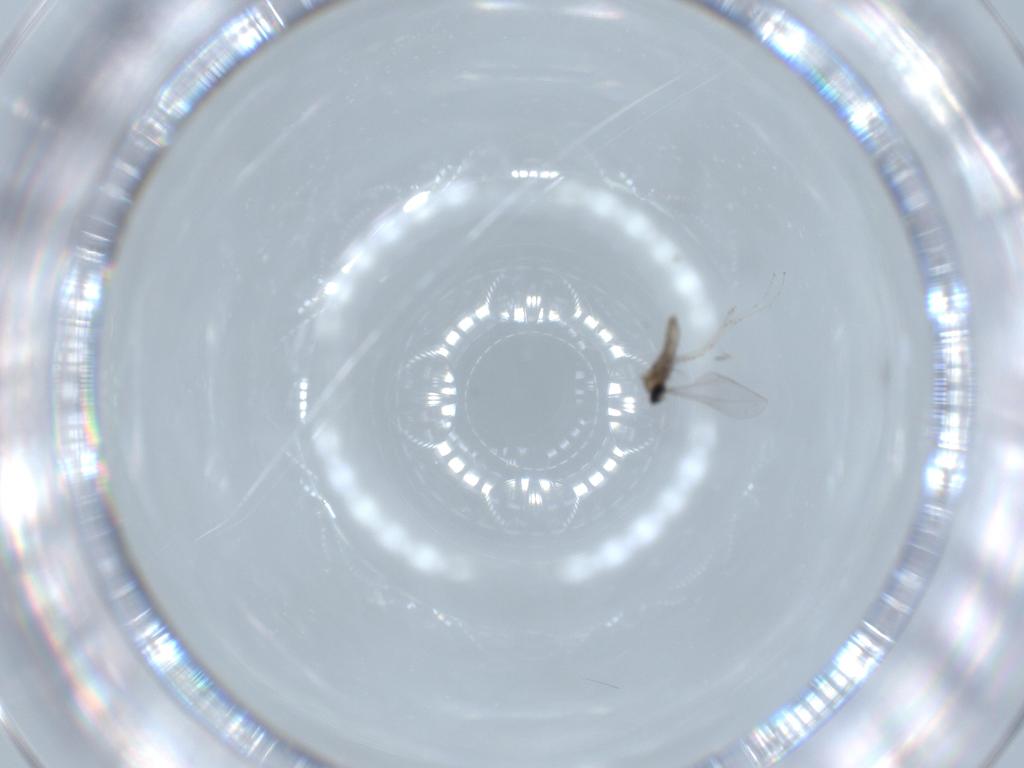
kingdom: Animalia
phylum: Arthropoda
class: Insecta
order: Diptera
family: Cecidomyiidae
